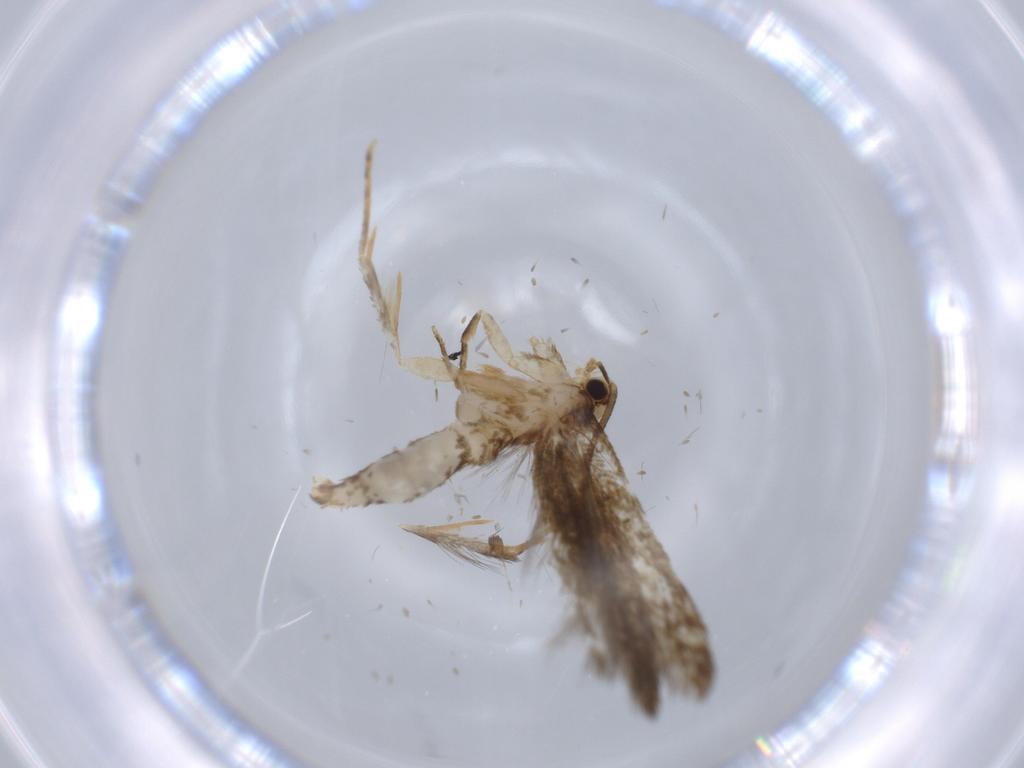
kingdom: Animalia
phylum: Arthropoda
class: Insecta
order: Lepidoptera
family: Tineidae
